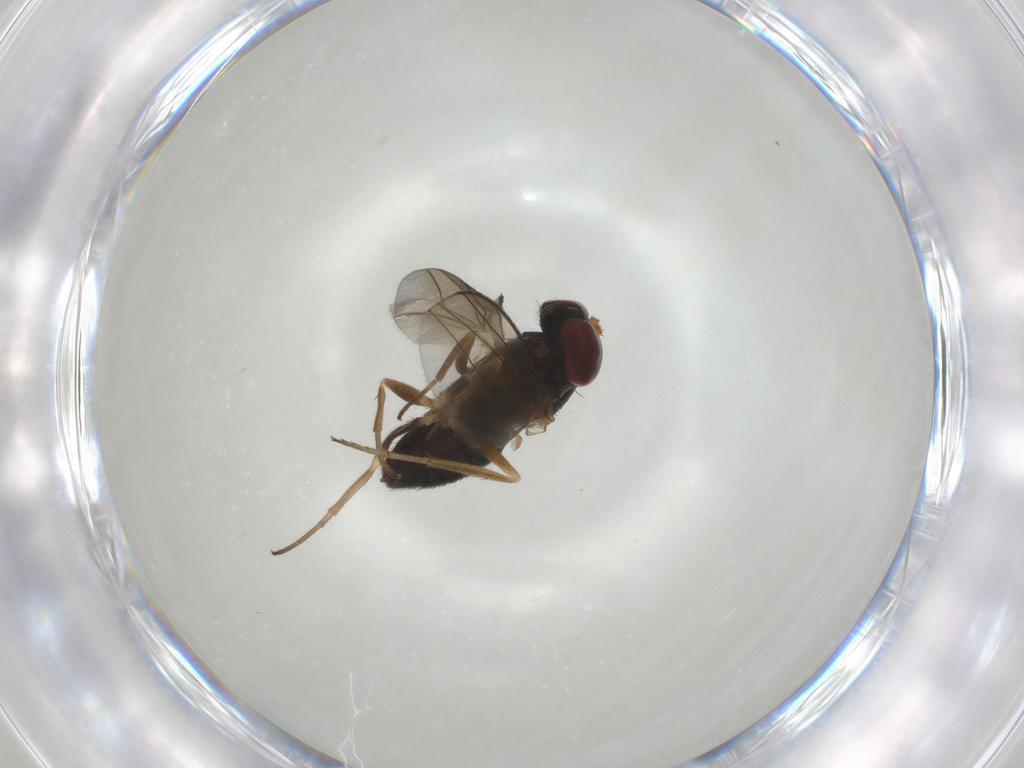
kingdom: Animalia
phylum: Arthropoda
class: Insecta
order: Diptera
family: Dolichopodidae
